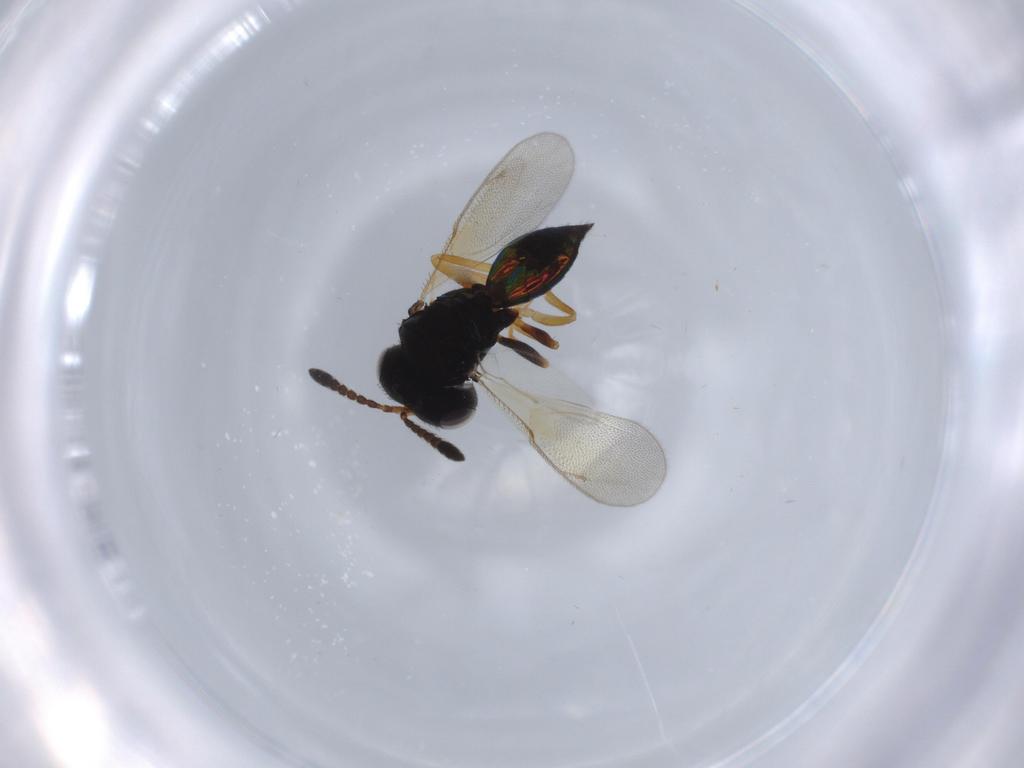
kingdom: Animalia
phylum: Arthropoda
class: Insecta
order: Hymenoptera
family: Pteromalidae
